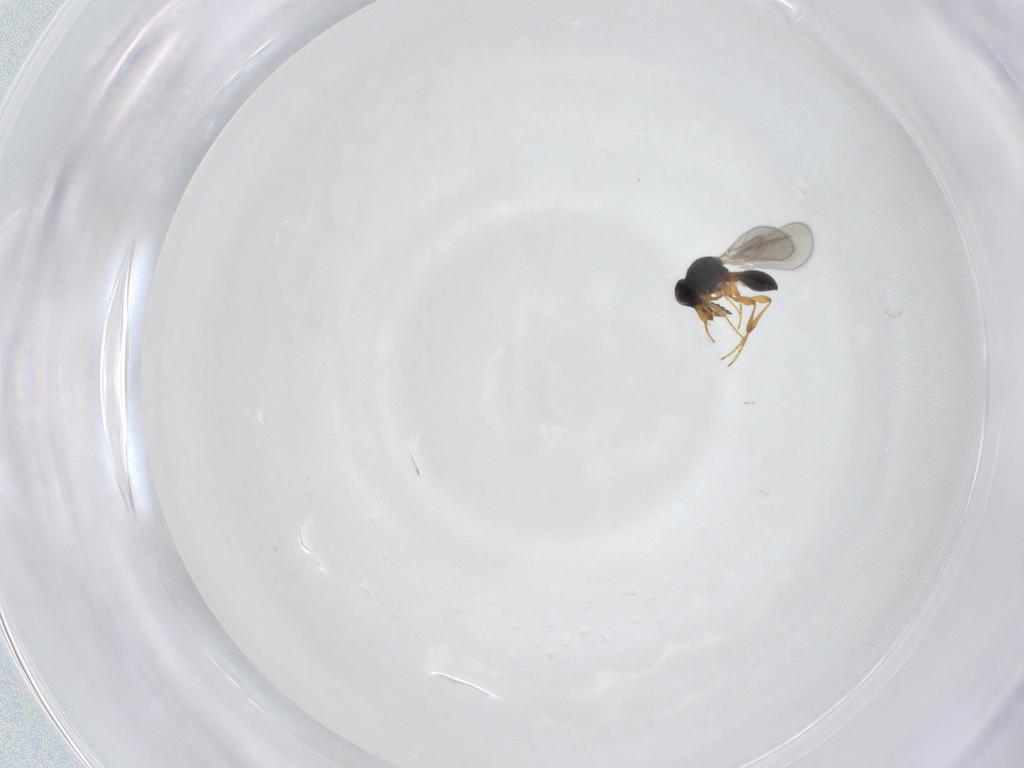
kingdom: Animalia
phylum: Arthropoda
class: Insecta
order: Hymenoptera
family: Platygastridae
